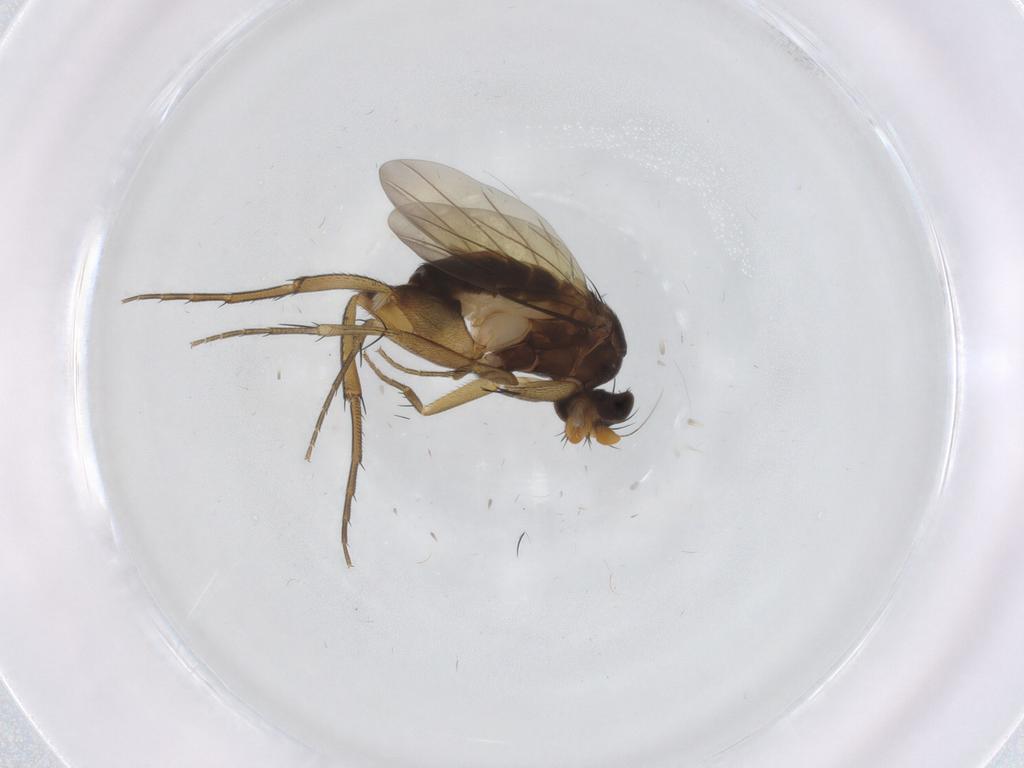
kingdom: Animalia
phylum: Arthropoda
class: Insecta
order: Diptera
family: Phoridae
